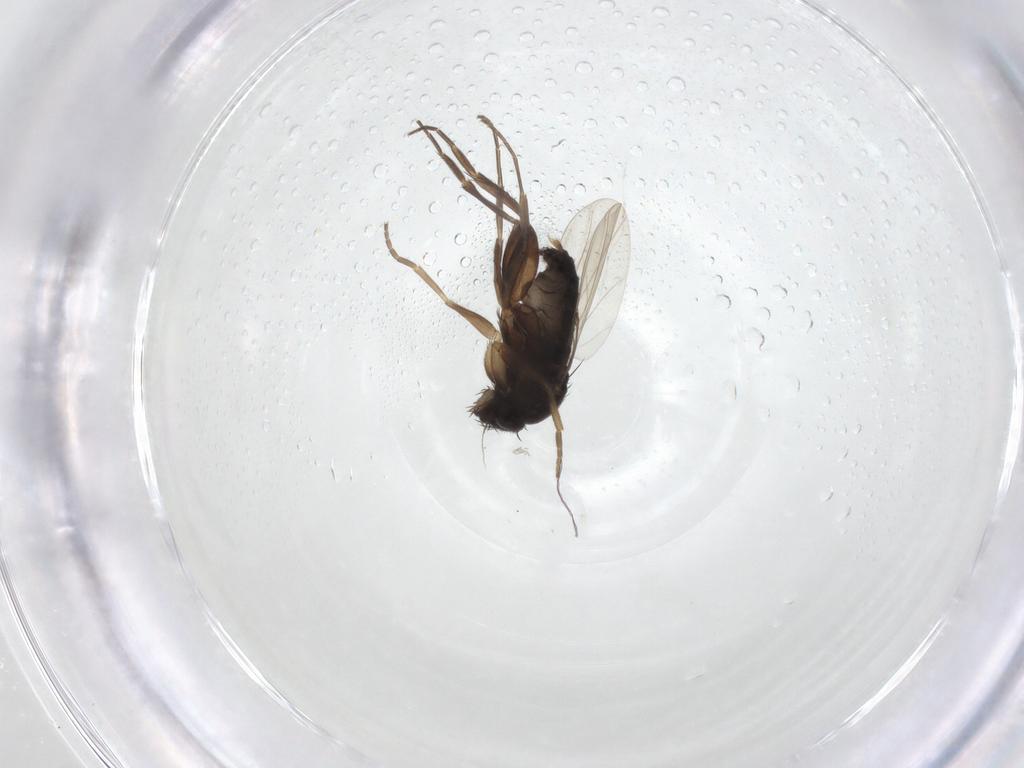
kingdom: Animalia
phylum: Arthropoda
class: Insecta
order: Diptera
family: Phoridae
